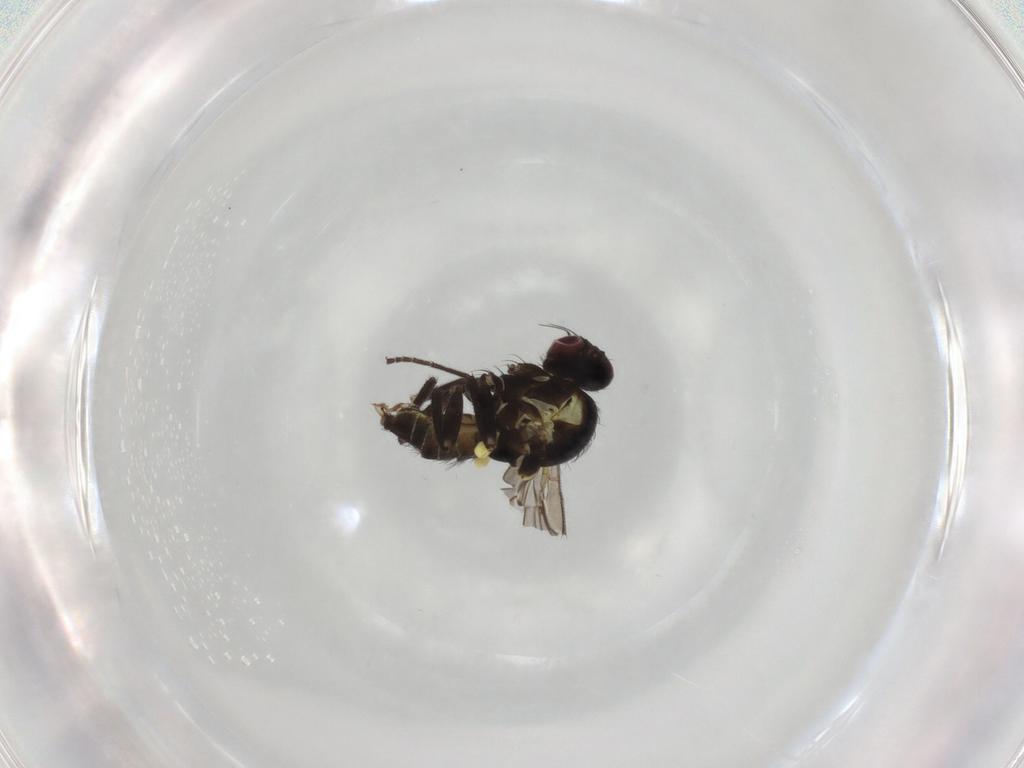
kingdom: Animalia
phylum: Arthropoda
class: Insecta
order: Diptera
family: Agromyzidae
